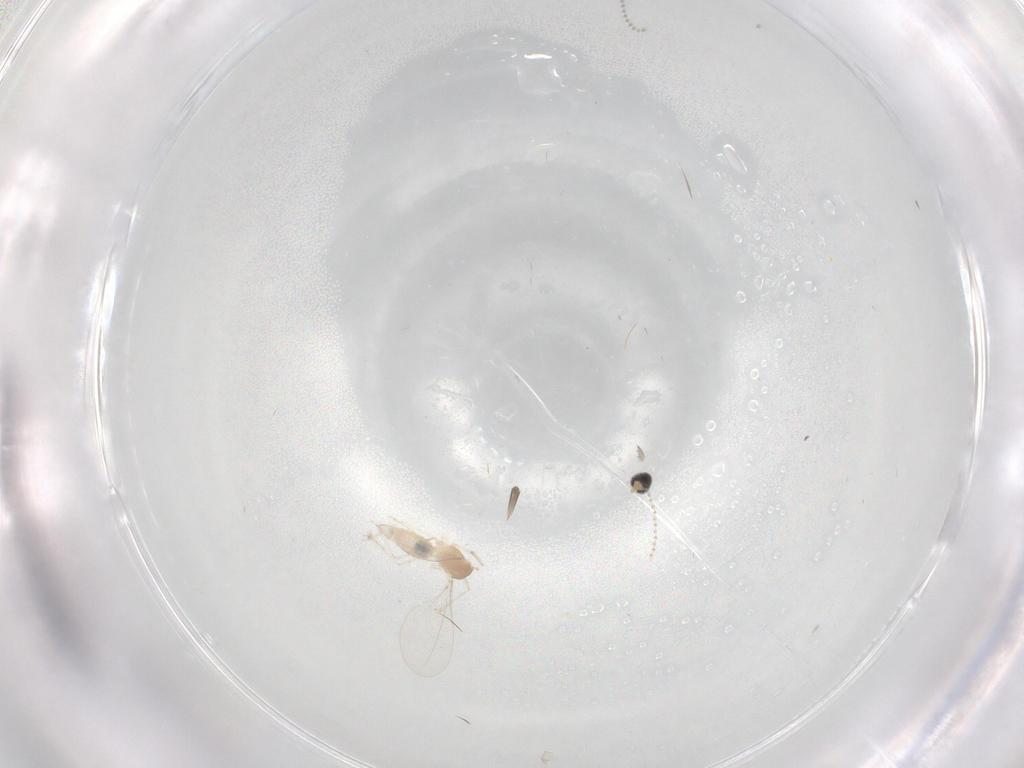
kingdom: Animalia
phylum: Arthropoda
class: Insecta
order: Diptera
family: Cecidomyiidae
